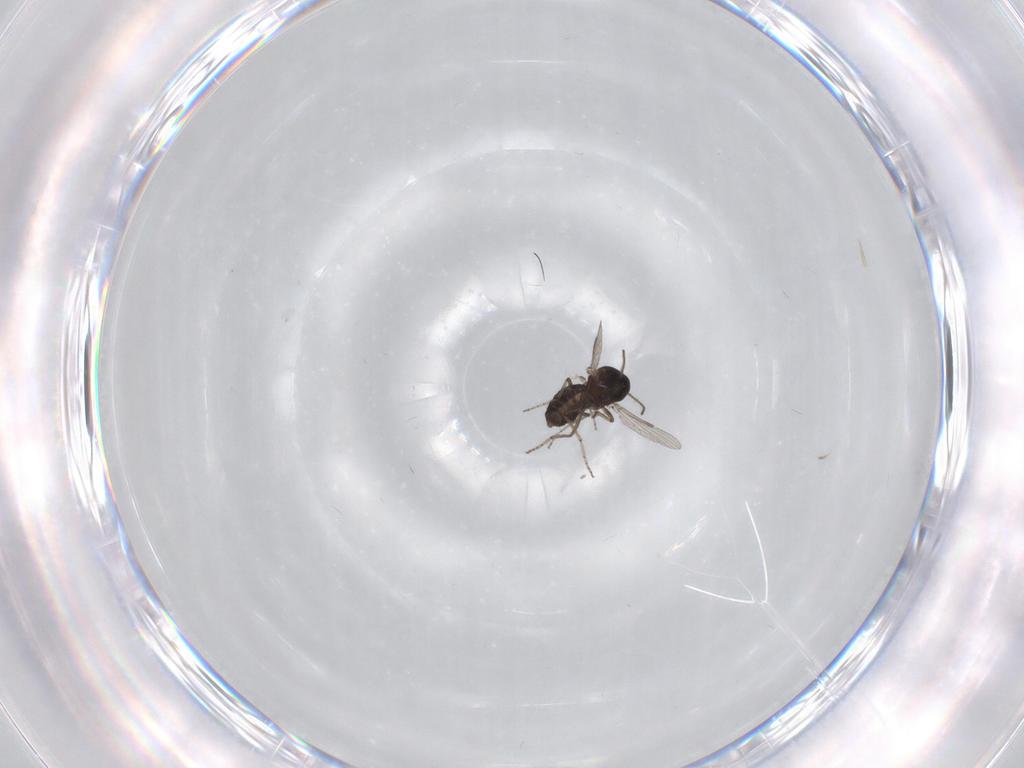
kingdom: Animalia
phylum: Arthropoda
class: Insecta
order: Diptera
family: Ceratopogonidae
